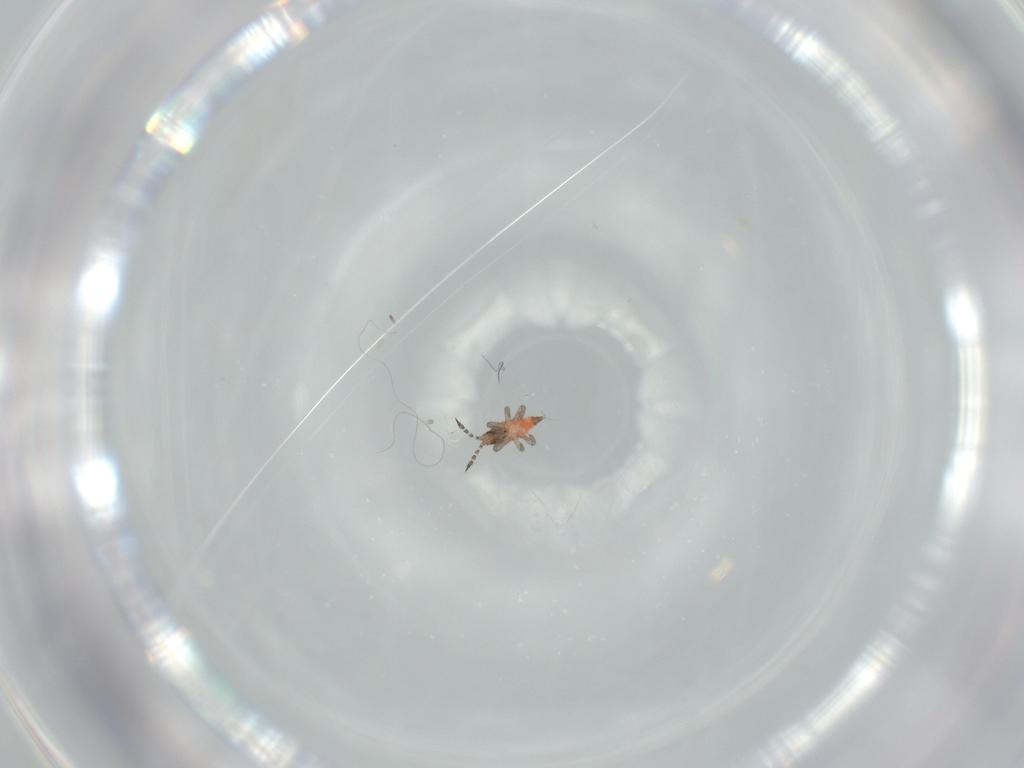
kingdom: Animalia
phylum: Arthropoda
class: Insecta
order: Thysanoptera
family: Phlaeothripidae
